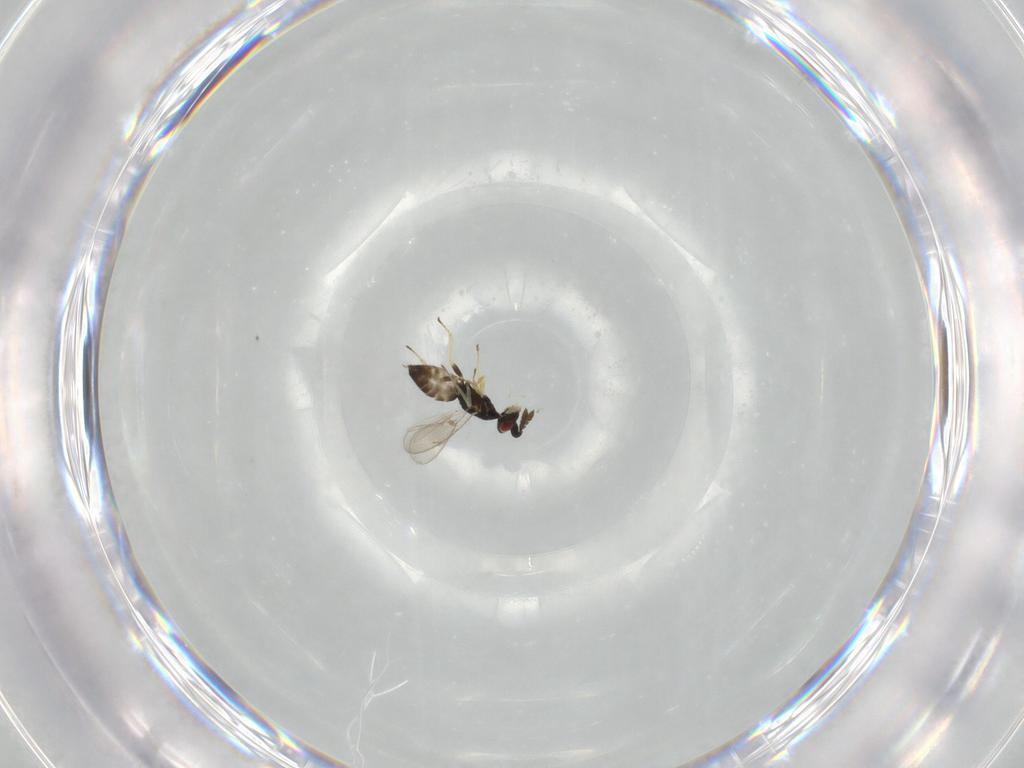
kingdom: Animalia
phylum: Arthropoda
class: Insecta
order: Hymenoptera
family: Eulophidae
